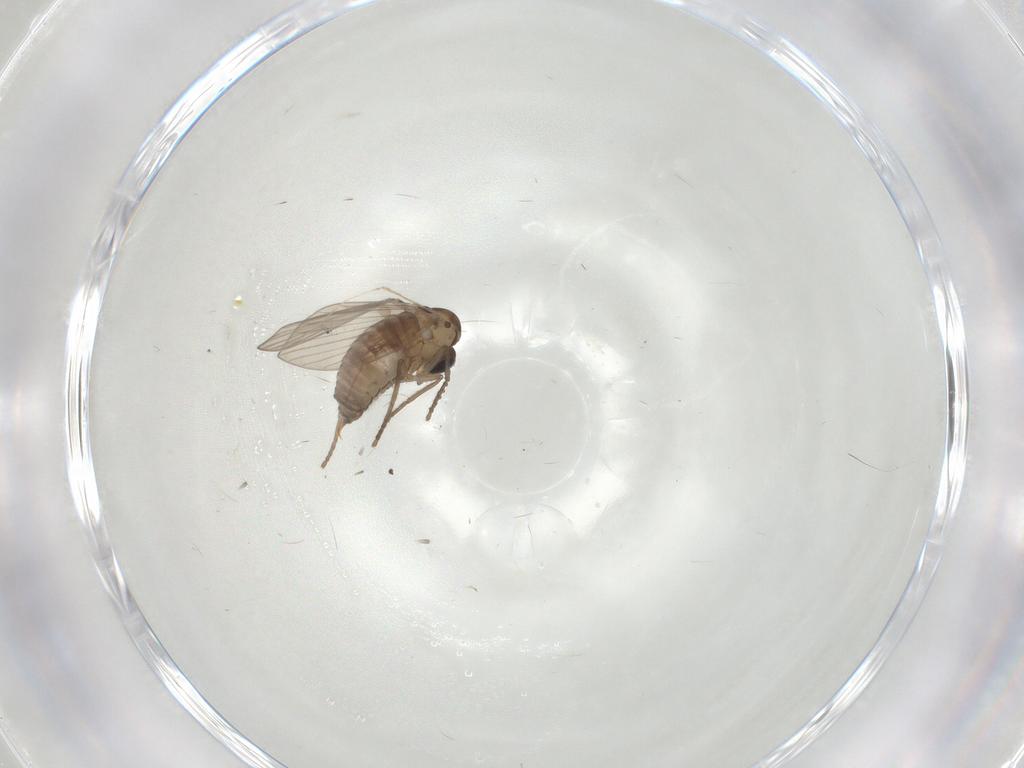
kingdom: Animalia
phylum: Arthropoda
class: Insecta
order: Diptera
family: Psychodidae
